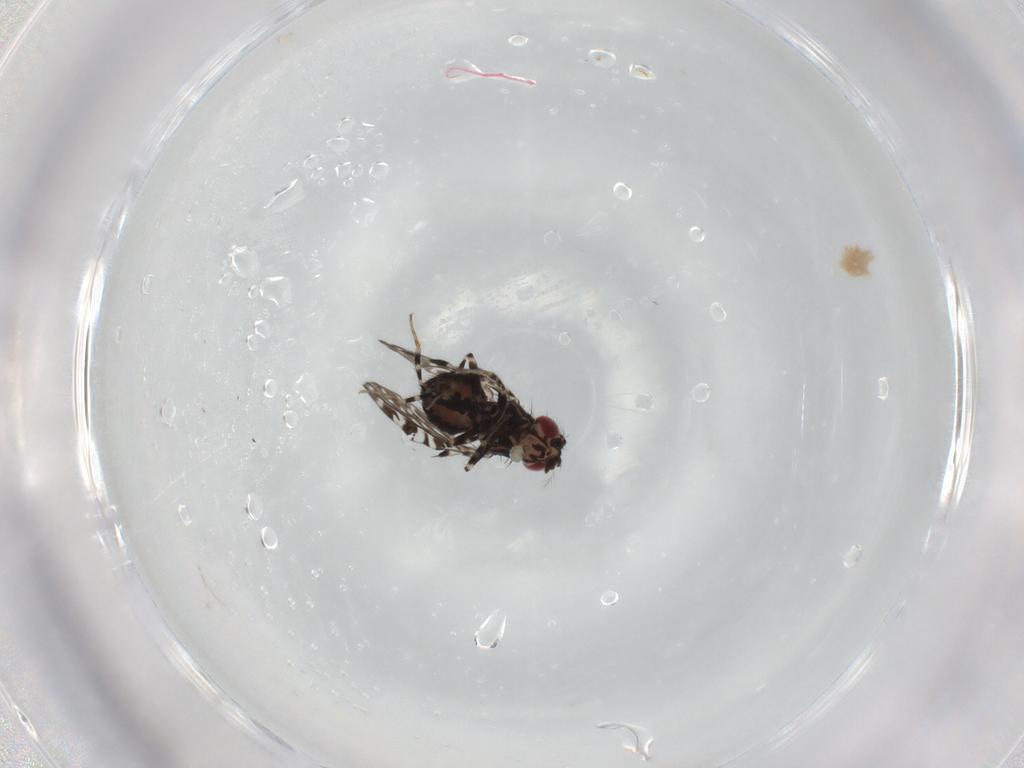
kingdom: Animalia
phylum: Arthropoda
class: Insecta
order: Diptera
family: Drosophilidae
